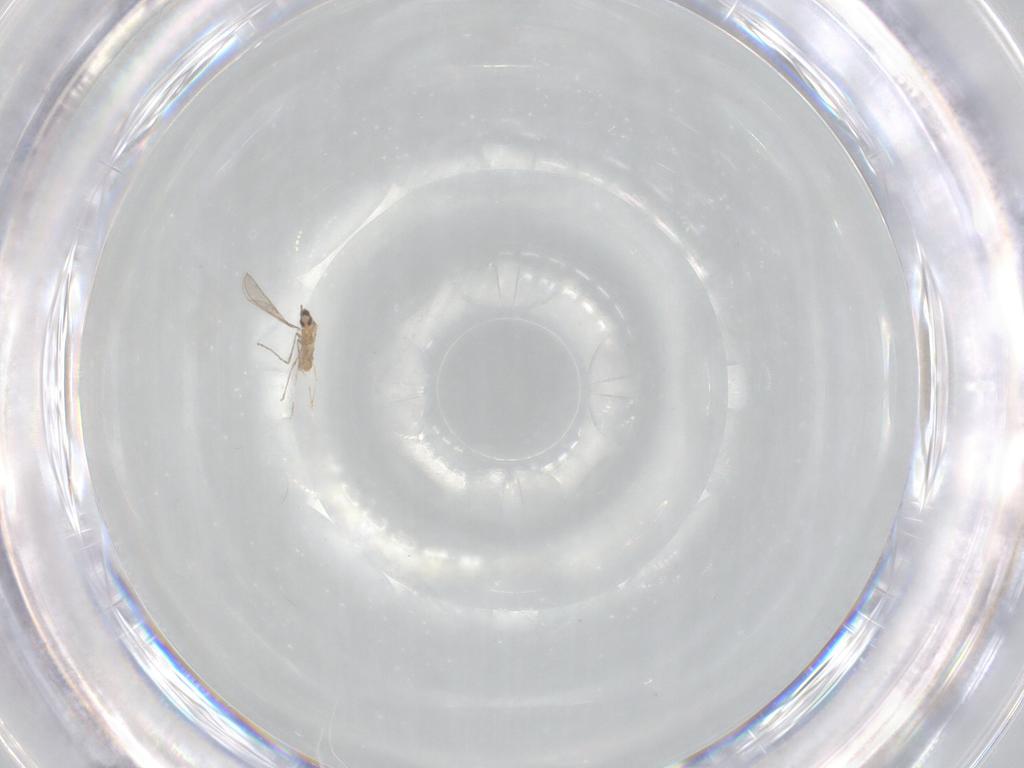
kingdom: Animalia
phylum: Arthropoda
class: Insecta
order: Diptera
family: Cecidomyiidae
